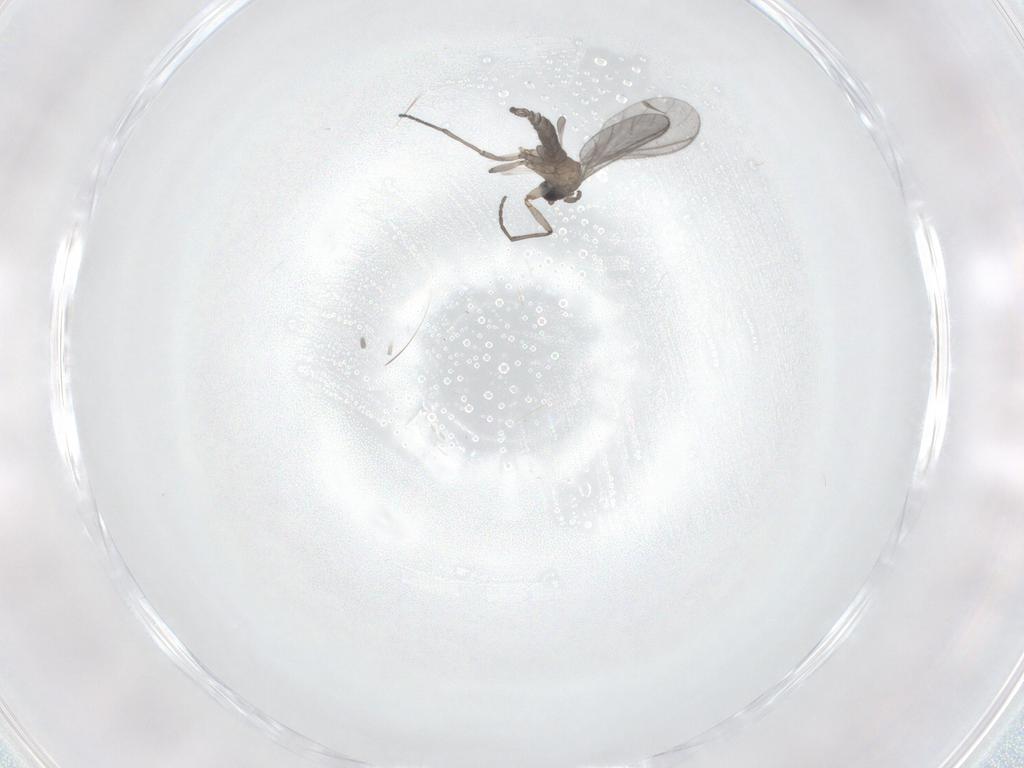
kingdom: Animalia
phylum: Arthropoda
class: Insecta
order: Diptera
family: Sciaridae
